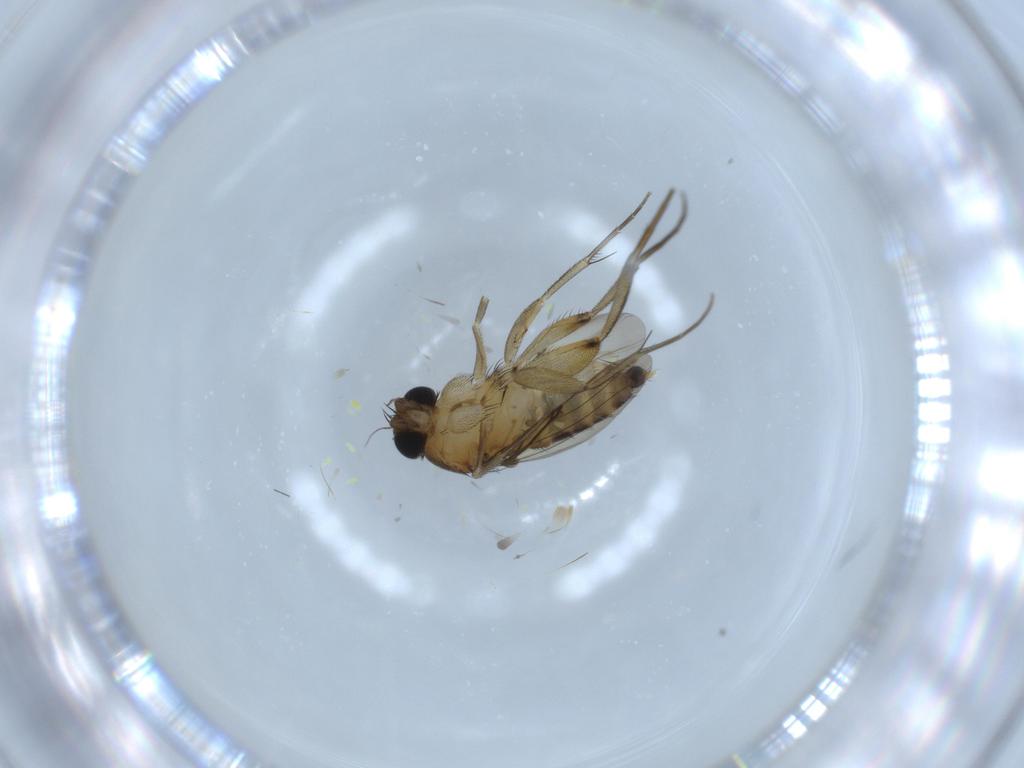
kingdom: Animalia
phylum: Arthropoda
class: Insecta
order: Diptera
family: Phoridae
